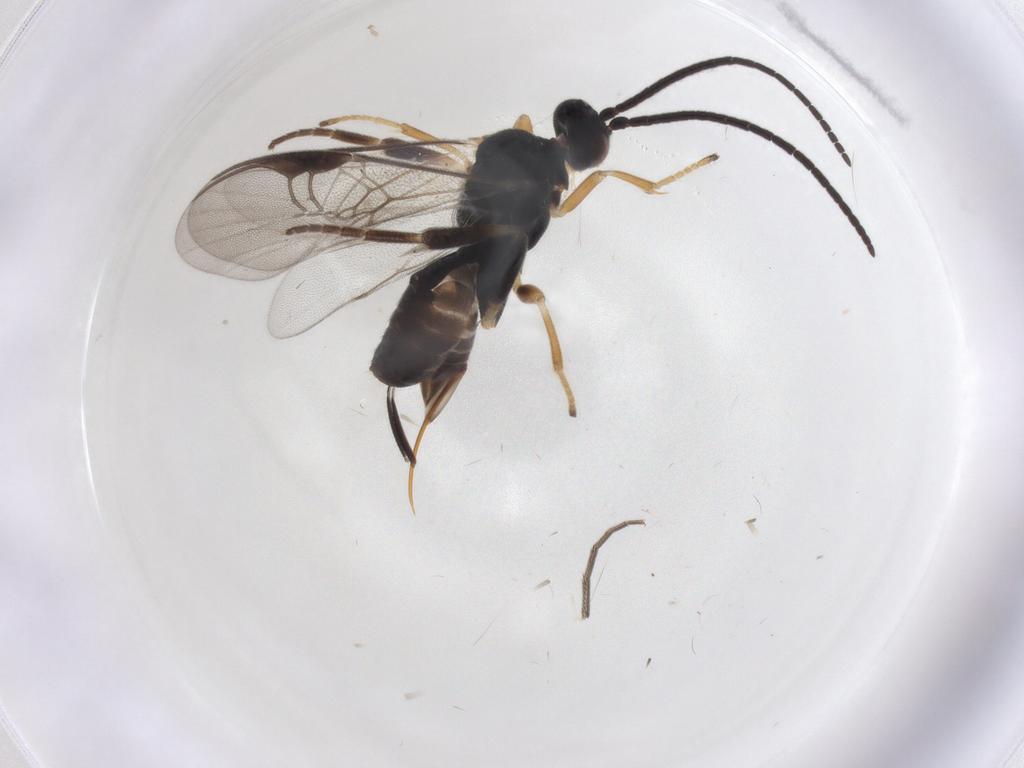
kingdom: Animalia
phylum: Arthropoda
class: Insecta
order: Hymenoptera
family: Braconidae
